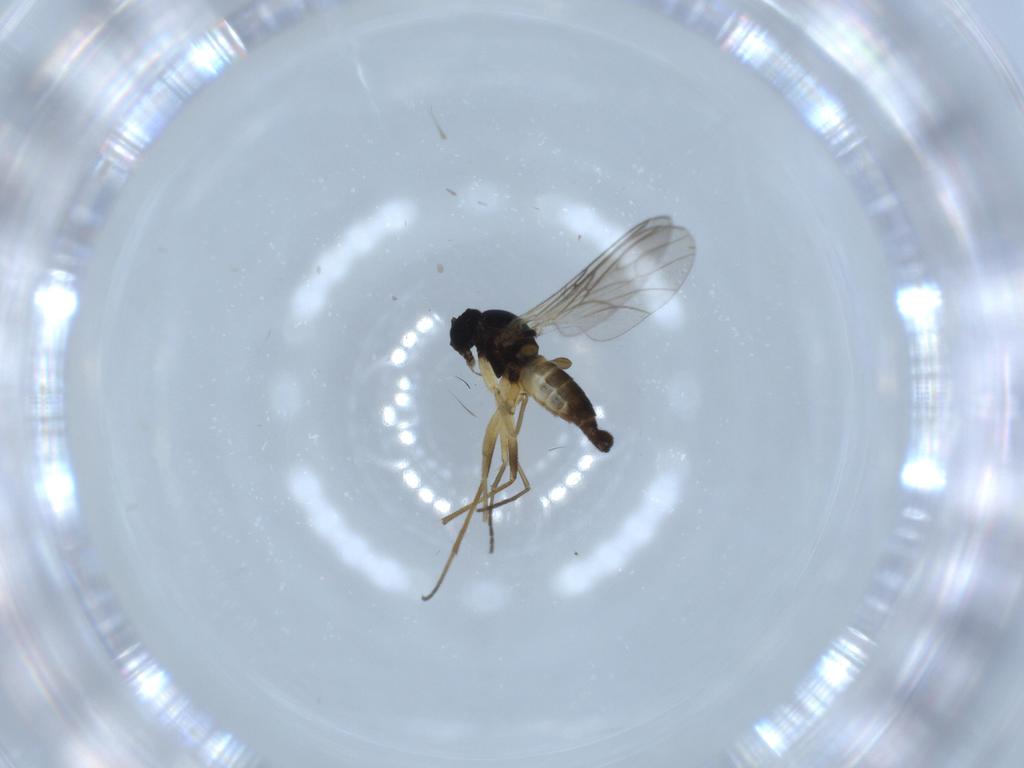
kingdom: Animalia
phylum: Arthropoda
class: Insecta
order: Diptera
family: Sciaridae
